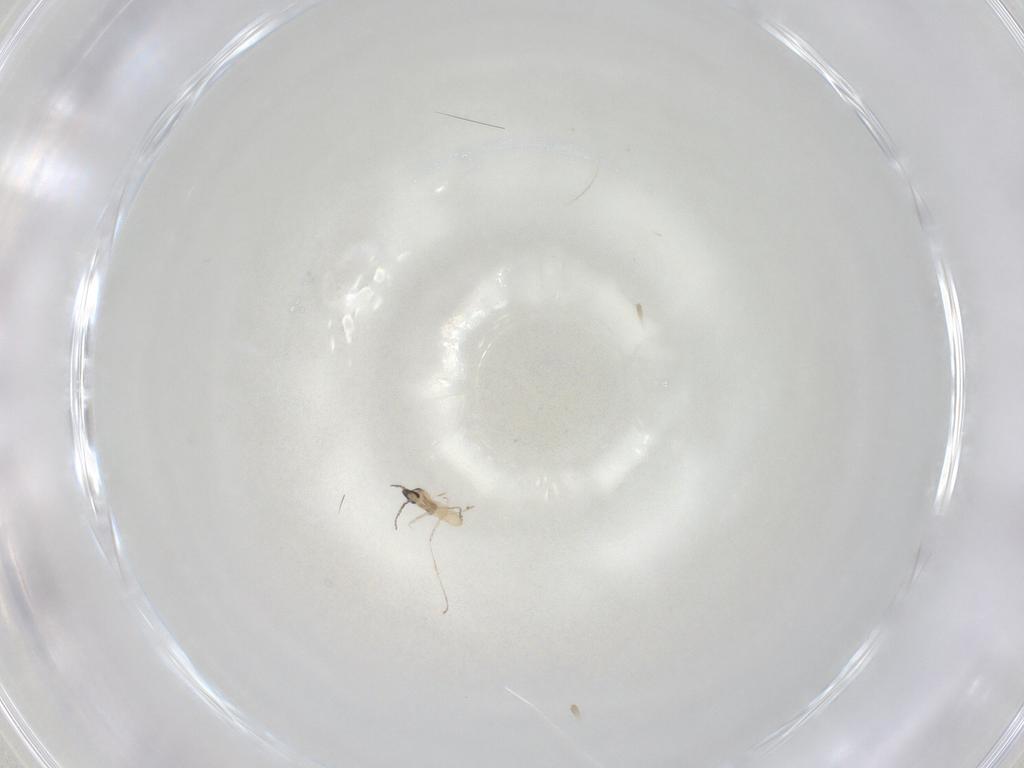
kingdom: Animalia
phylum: Arthropoda
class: Insecta
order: Diptera
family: Cecidomyiidae
